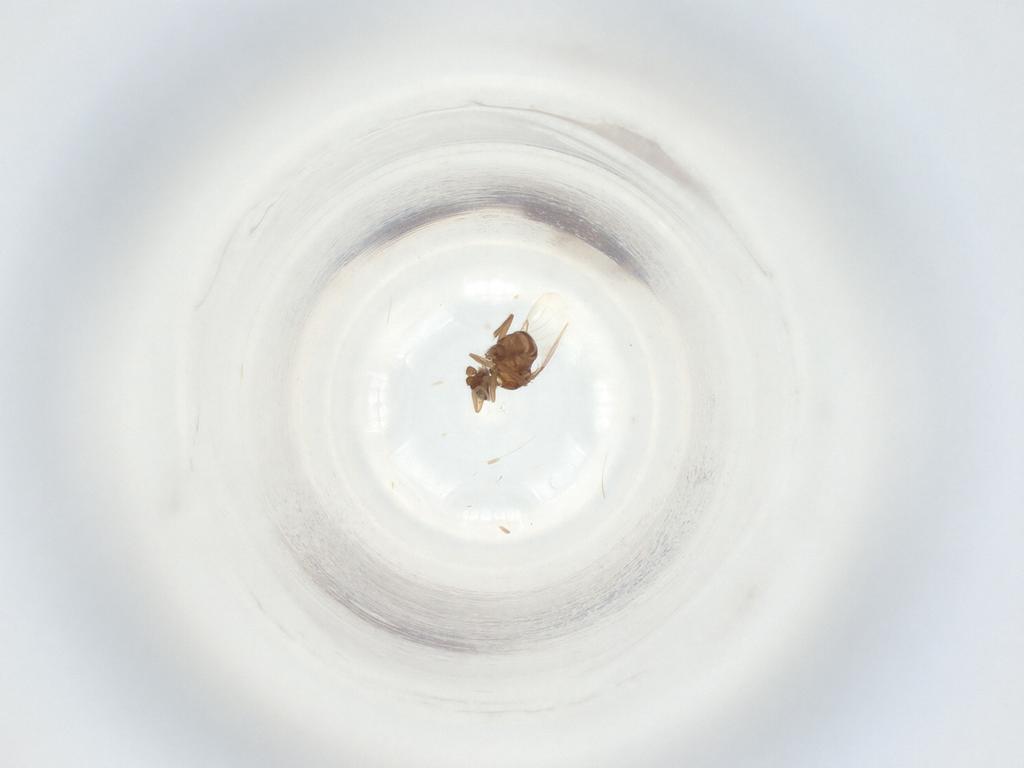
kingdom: Animalia
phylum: Arthropoda
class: Insecta
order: Diptera
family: Phoridae
